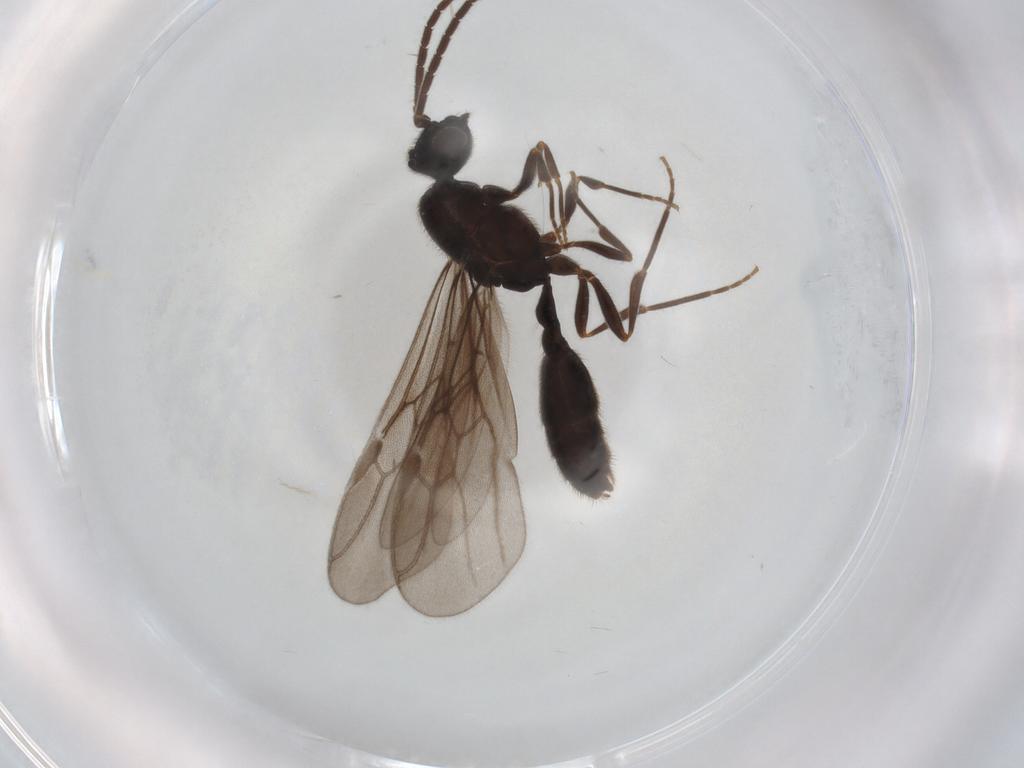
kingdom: Animalia
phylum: Arthropoda
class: Insecta
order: Hymenoptera
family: Formicidae
